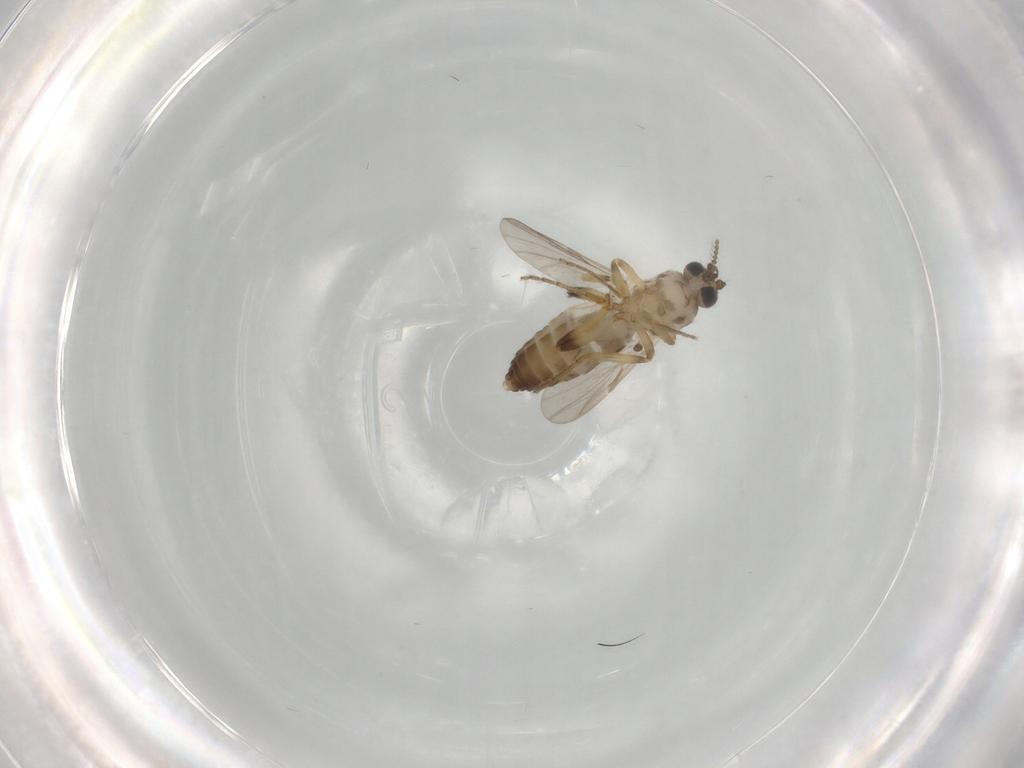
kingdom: Animalia
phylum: Arthropoda
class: Insecta
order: Diptera
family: Ceratopogonidae
